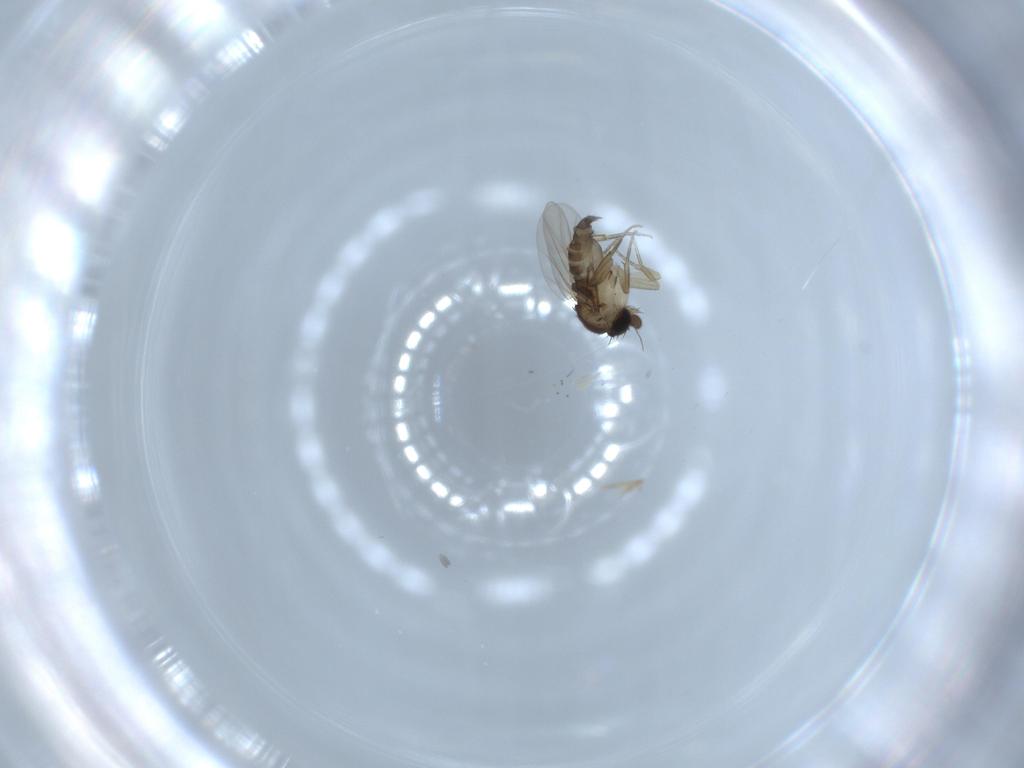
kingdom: Animalia
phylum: Arthropoda
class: Insecta
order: Diptera
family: Phoridae
